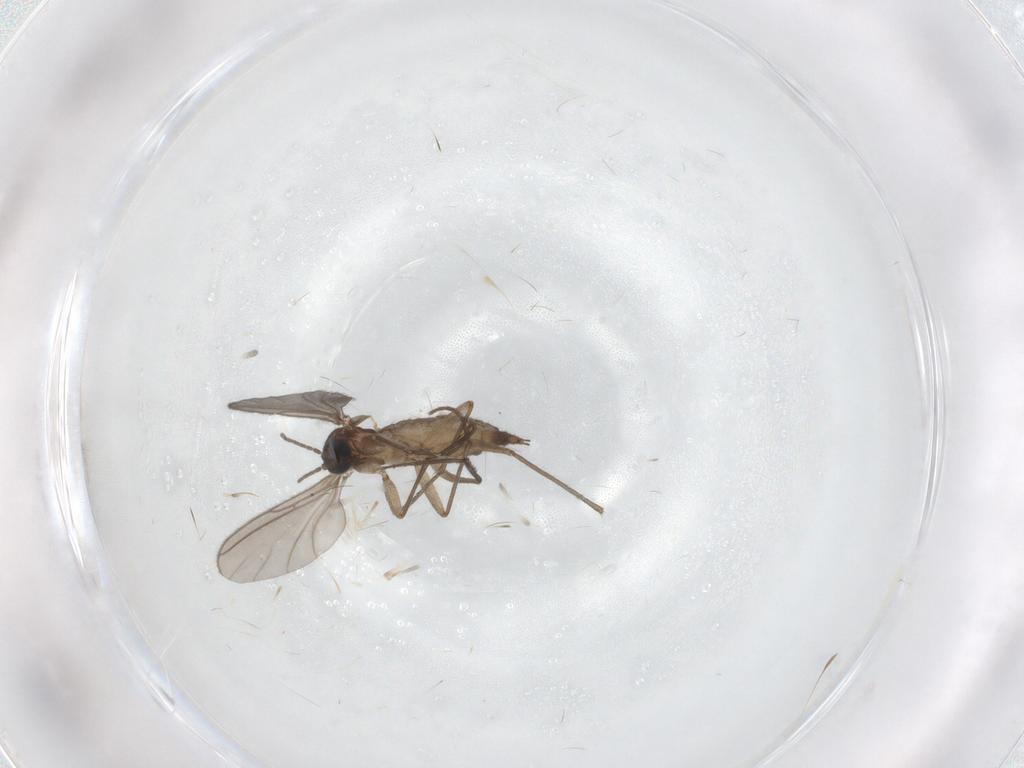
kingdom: Animalia
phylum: Arthropoda
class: Insecta
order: Diptera
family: Sciaridae
